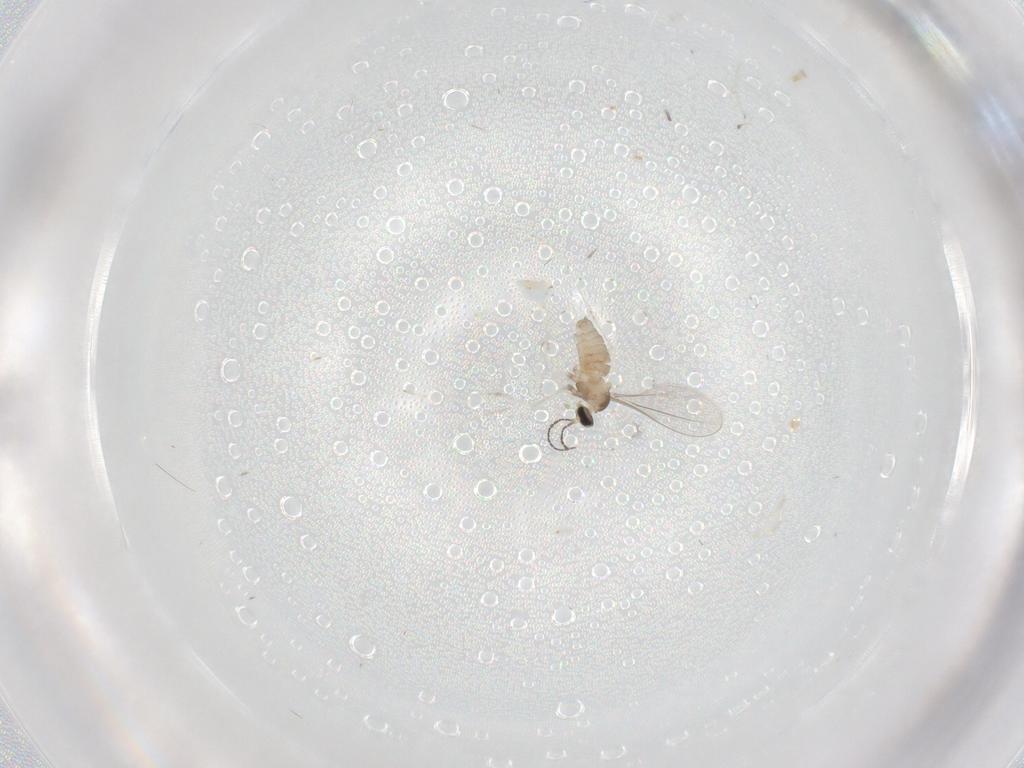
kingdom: Animalia
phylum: Arthropoda
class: Insecta
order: Diptera
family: Cecidomyiidae
